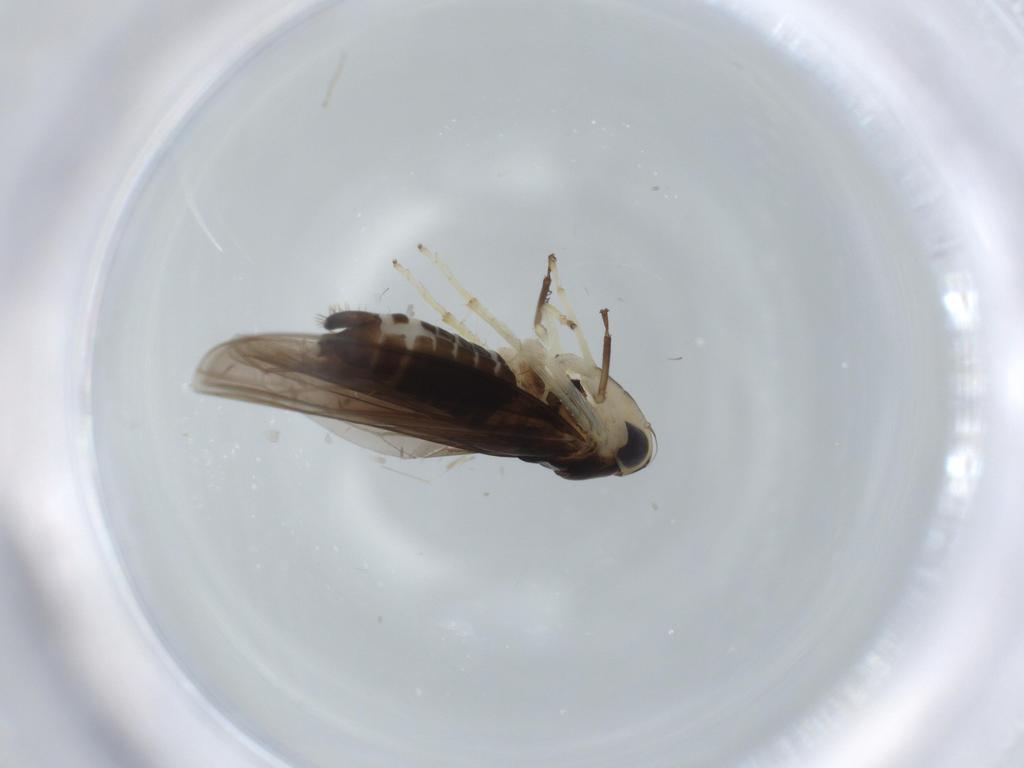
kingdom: Animalia
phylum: Arthropoda
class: Insecta
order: Hemiptera
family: Cicadellidae
